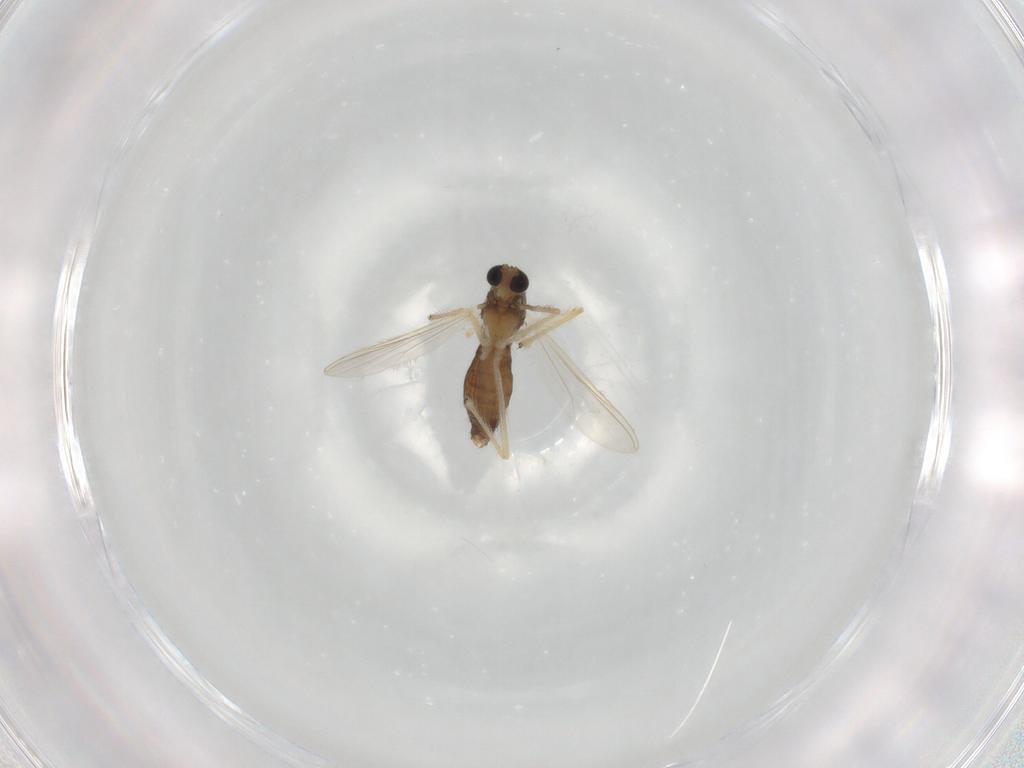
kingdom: Animalia
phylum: Arthropoda
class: Insecta
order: Diptera
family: Chironomidae
